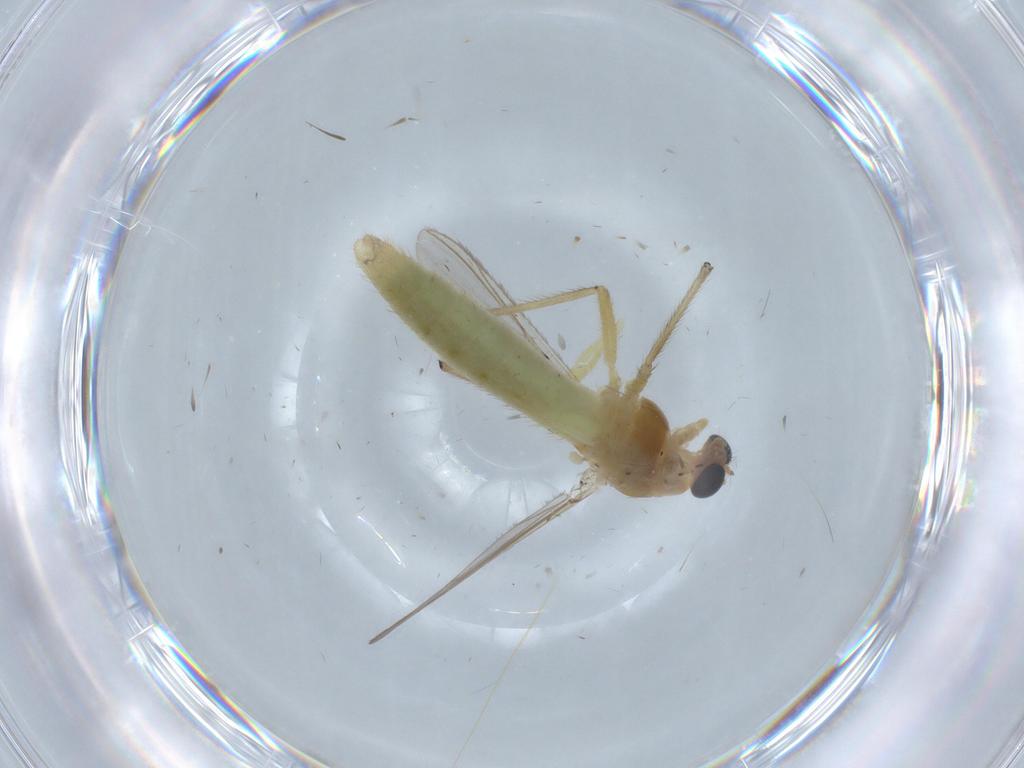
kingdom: Animalia
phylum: Arthropoda
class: Insecta
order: Diptera
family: Chironomidae
